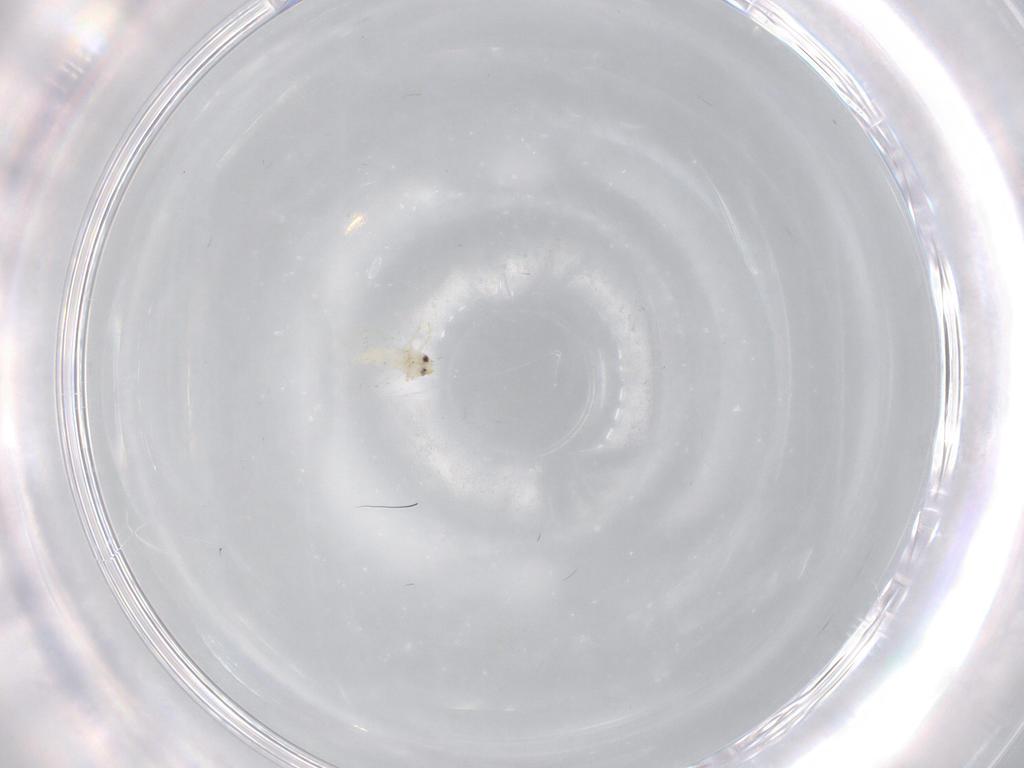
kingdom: Animalia
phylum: Arthropoda
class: Insecta
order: Hemiptera
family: Aleyrodidae
